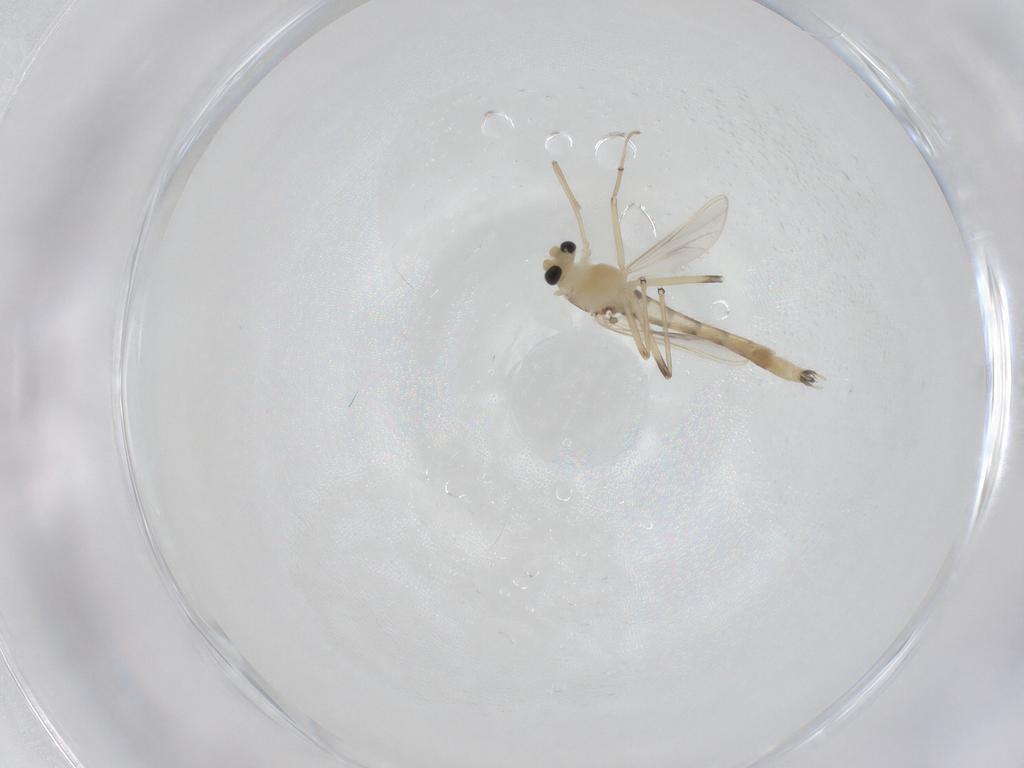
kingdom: Animalia
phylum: Arthropoda
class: Insecta
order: Diptera
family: Chironomidae
